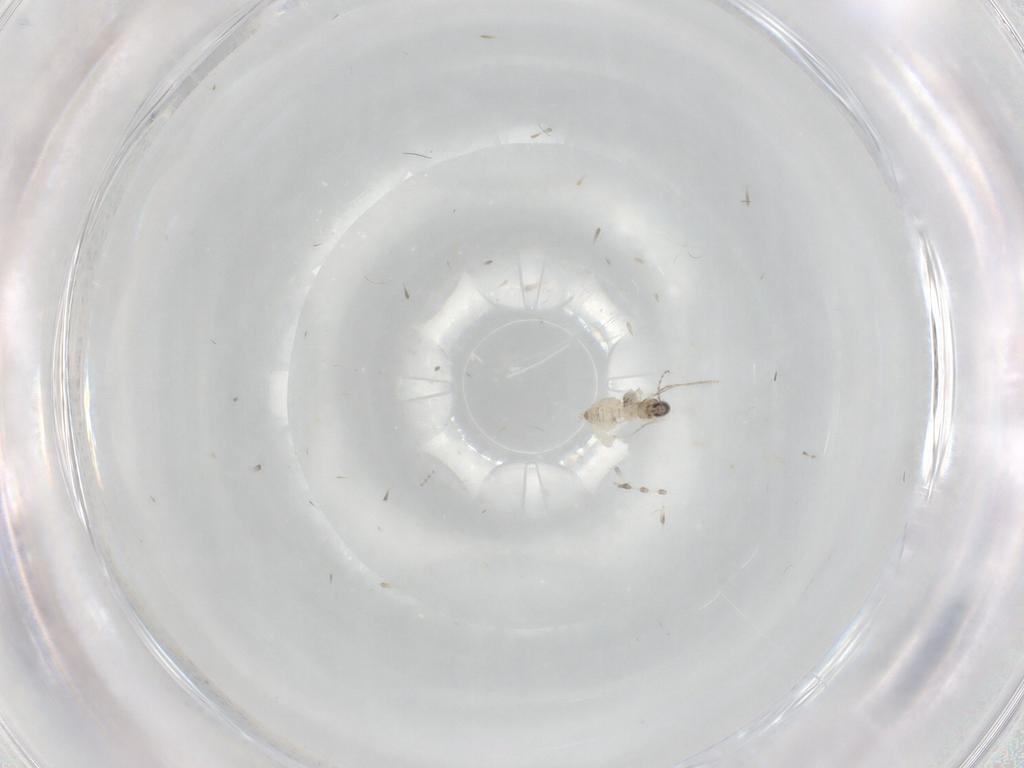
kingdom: Animalia
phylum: Arthropoda
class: Insecta
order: Diptera
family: Cecidomyiidae
